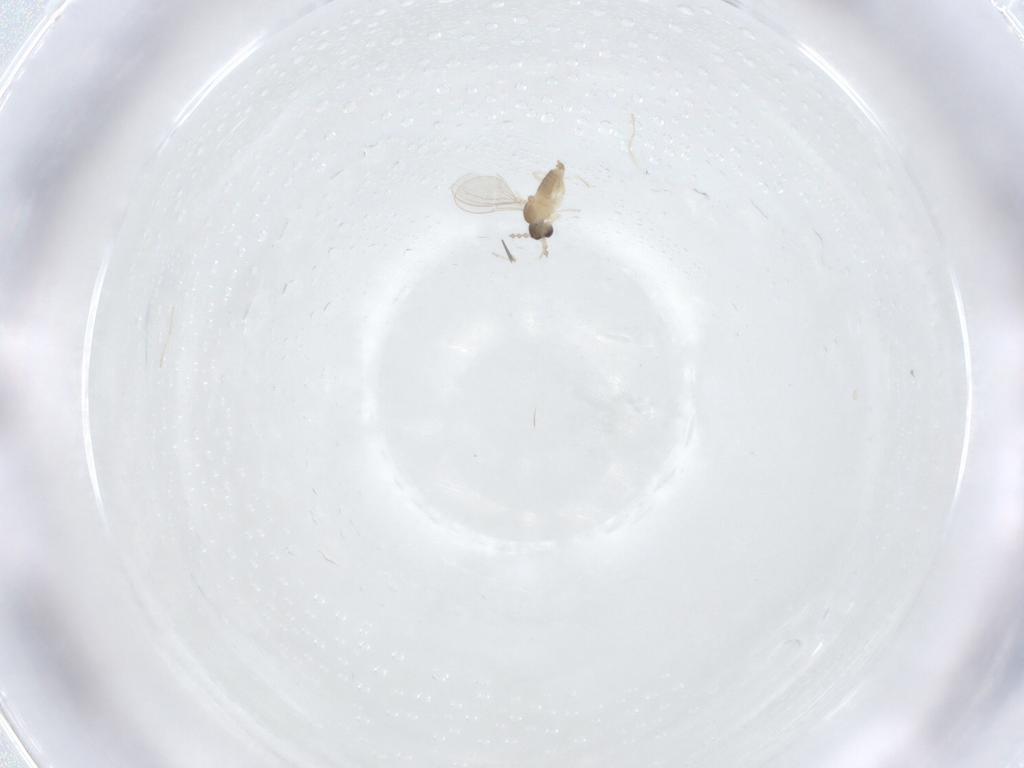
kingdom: Animalia
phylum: Arthropoda
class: Insecta
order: Diptera
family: Cecidomyiidae
